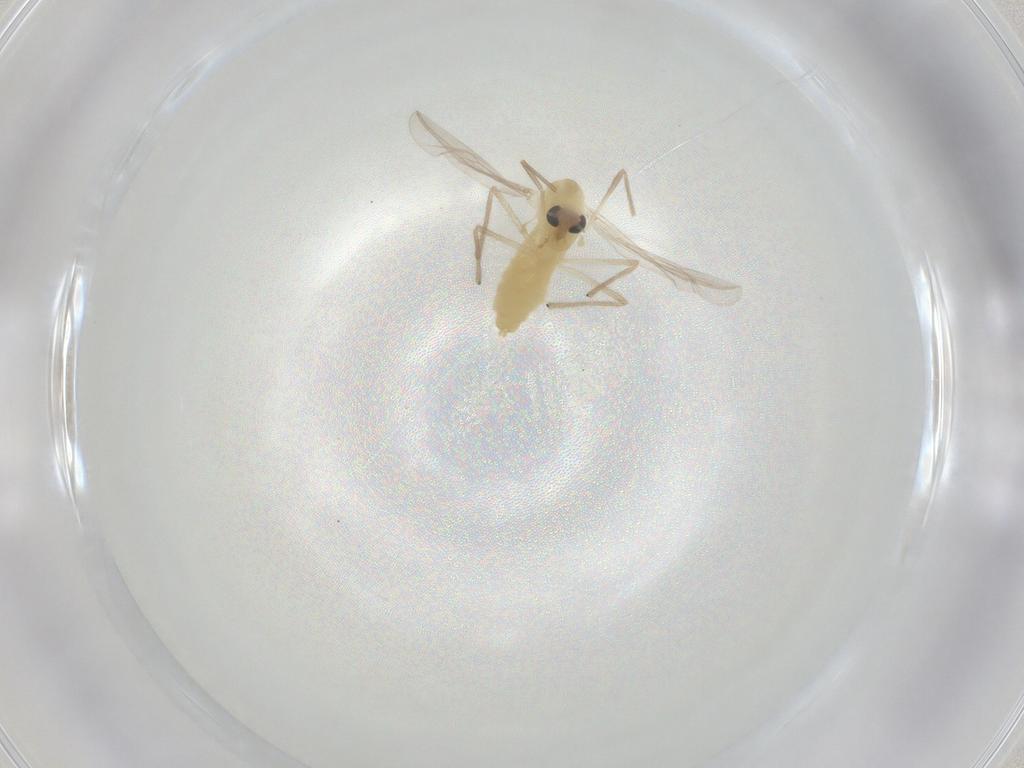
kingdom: Animalia
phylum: Arthropoda
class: Insecta
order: Diptera
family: Chironomidae
